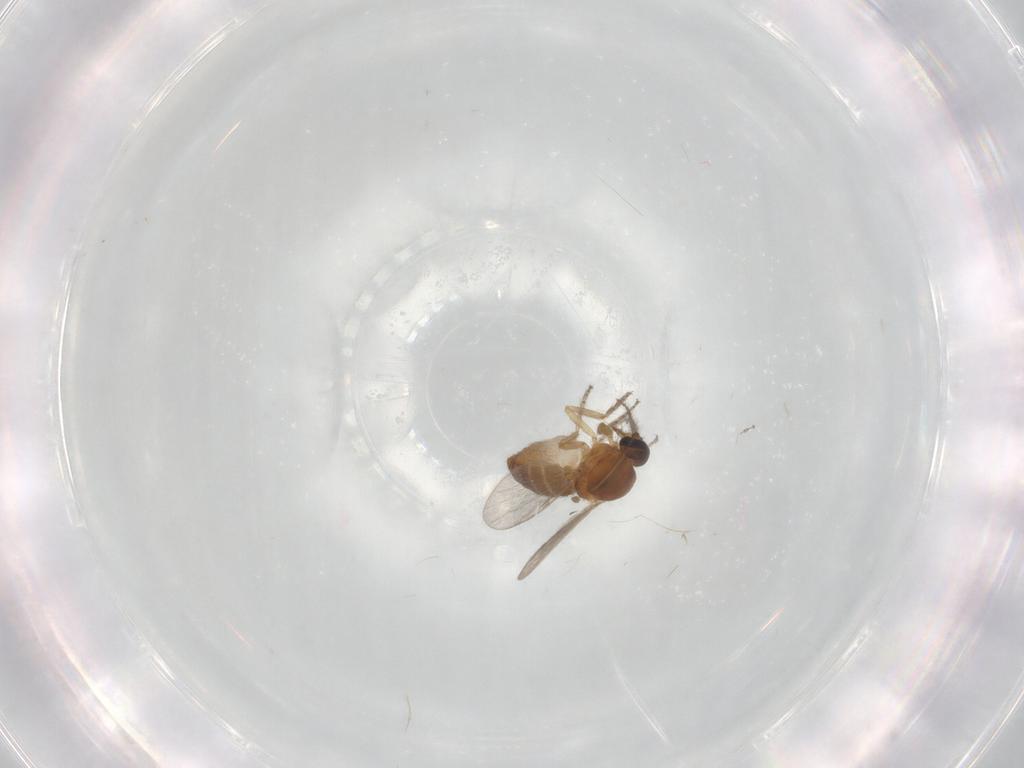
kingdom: Animalia
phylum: Arthropoda
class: Insecta
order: Diptera
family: Ceratopogonidae
